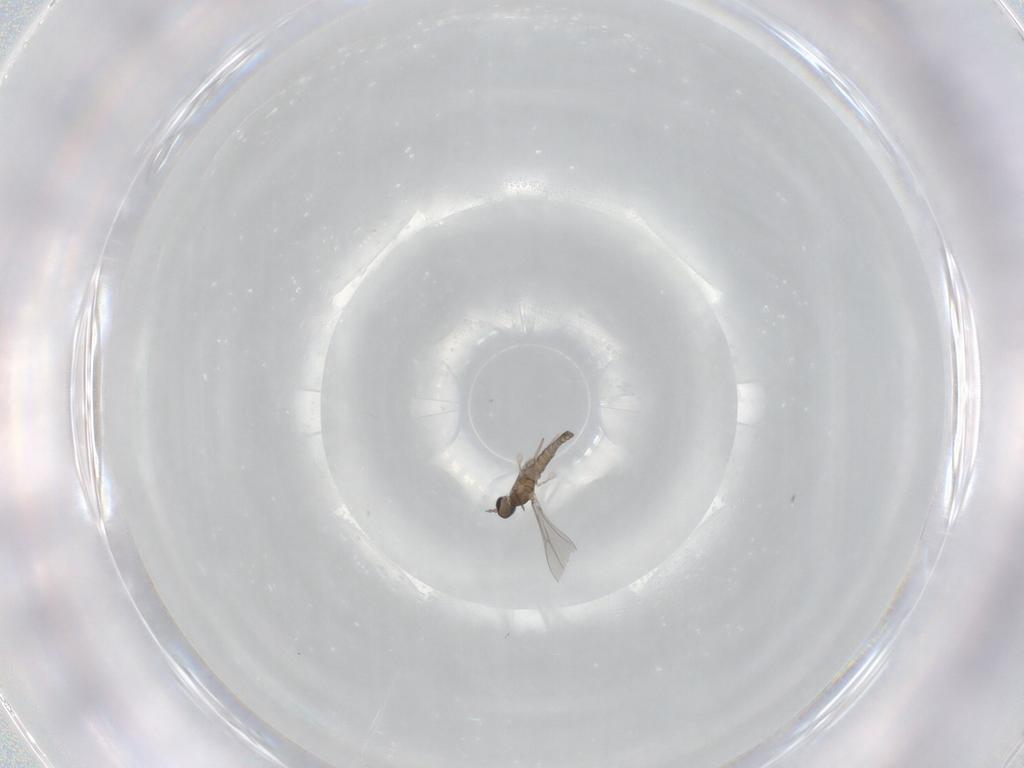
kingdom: Animalia
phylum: Arthropoda
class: Insecta
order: Diptera
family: Cecidomyiidae
